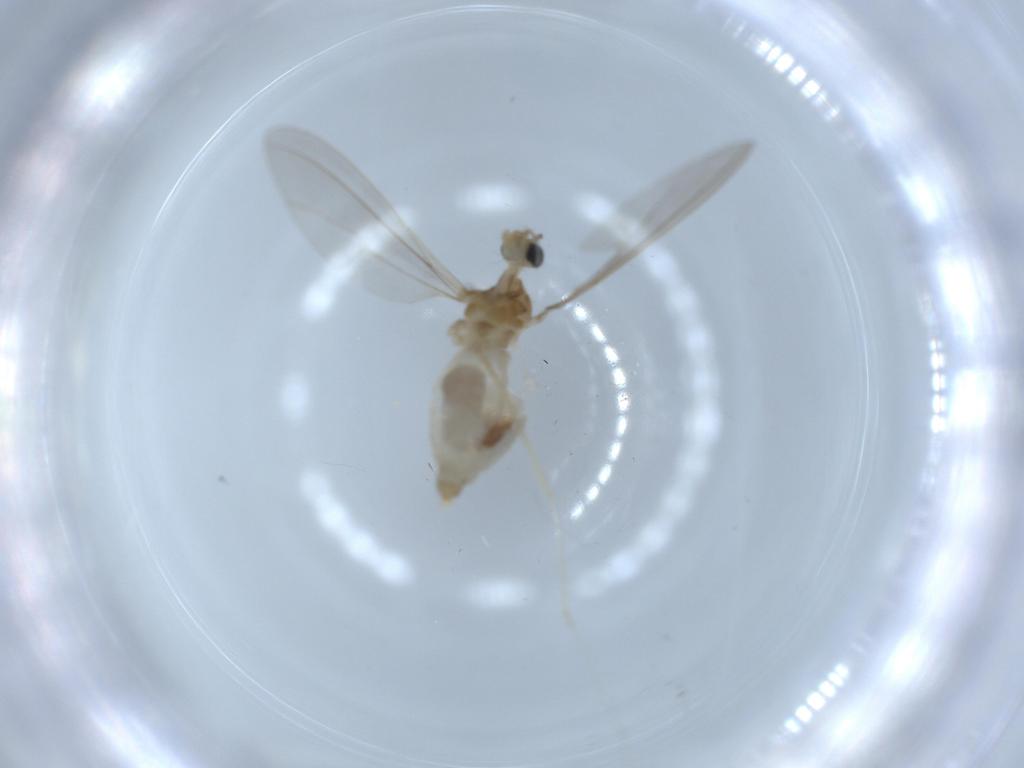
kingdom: Animalia
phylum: Arthropoda
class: Insecta
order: Diptera
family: Cecidomyiidae
